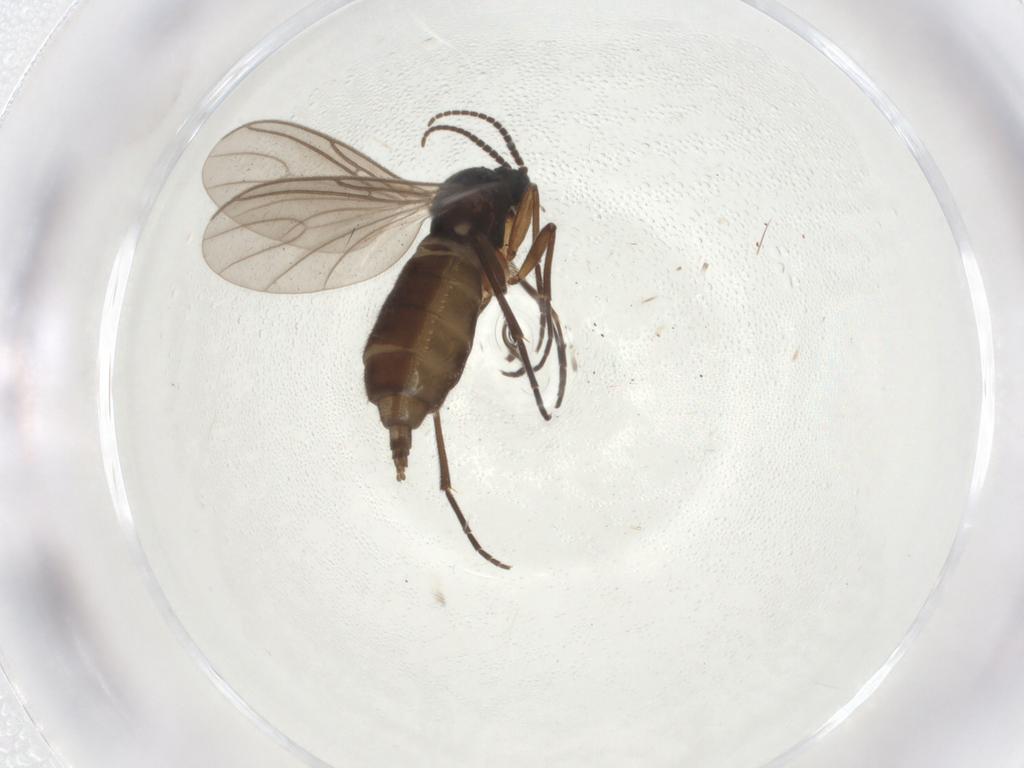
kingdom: Animalia
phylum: Arthropoda
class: Insecta
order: Diptera
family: Sciaridae
